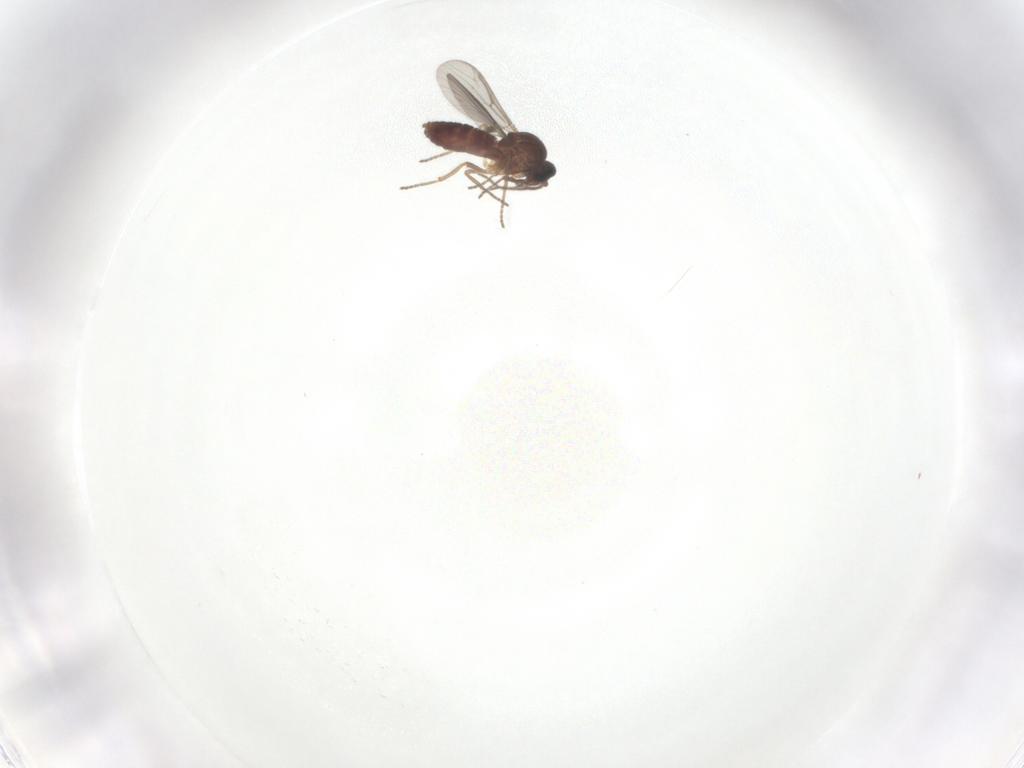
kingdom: Animalia
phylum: Arthropoda
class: Insecta
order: Diptera
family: Ceratopogonidae
